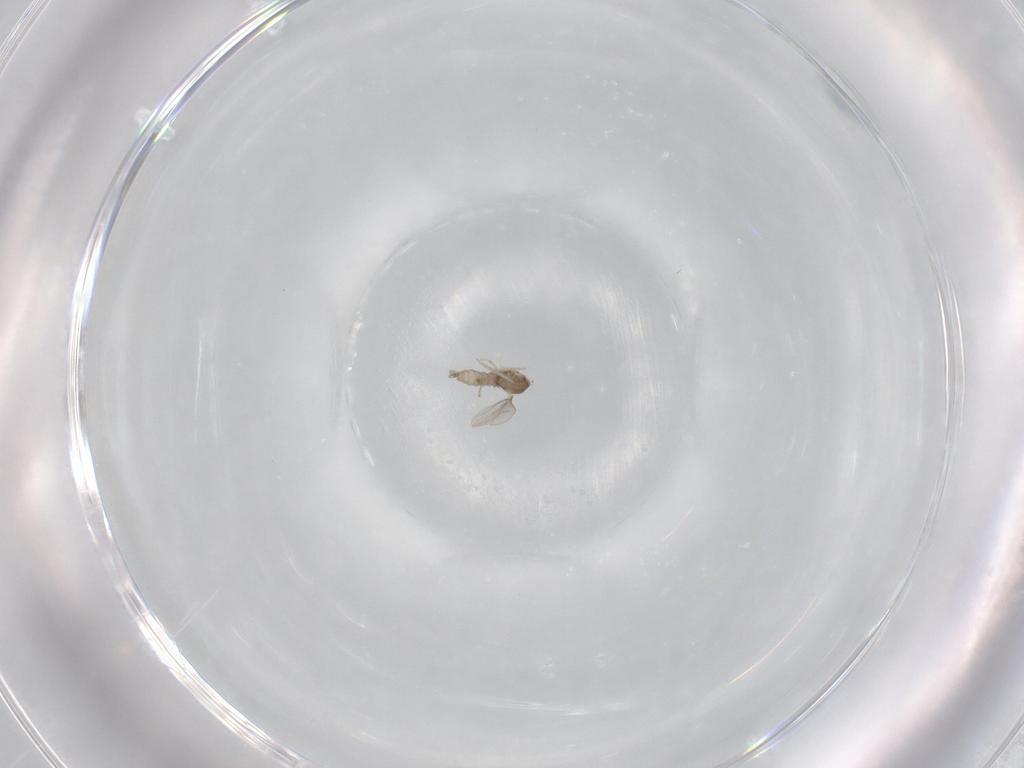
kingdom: Animalia
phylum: Arthropoda
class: Insecta
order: Diptera
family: Cecidomyiidae
